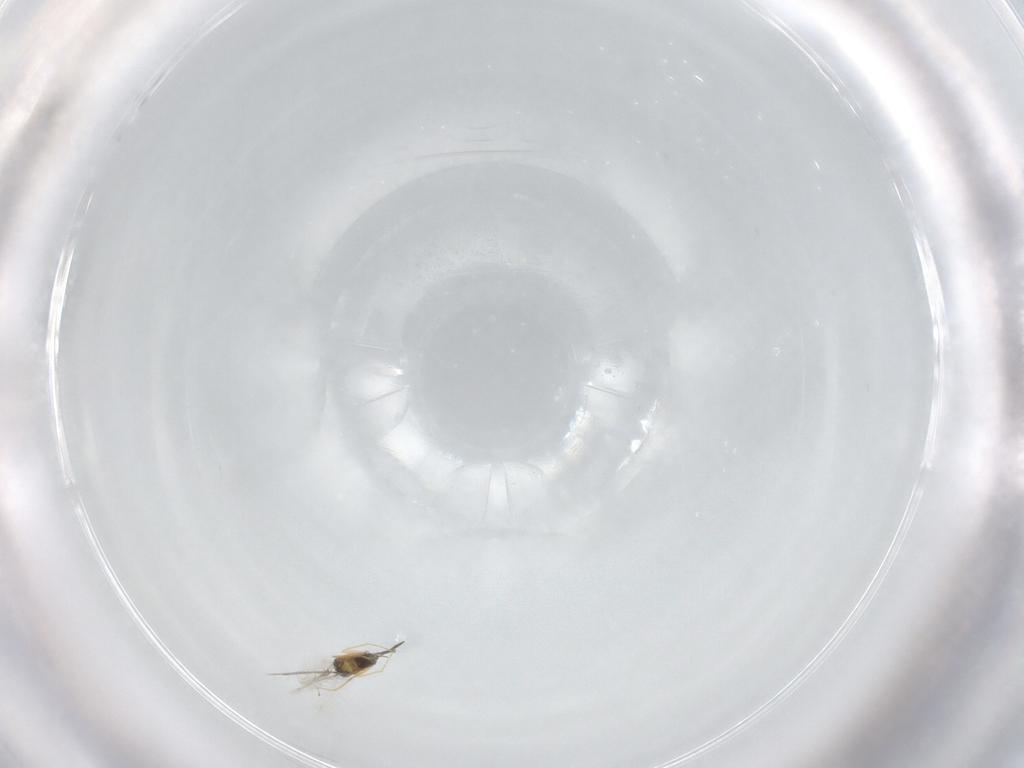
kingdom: Animalia
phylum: Arthropoda
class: Insecta
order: Hymenoptera
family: Mymaridae
